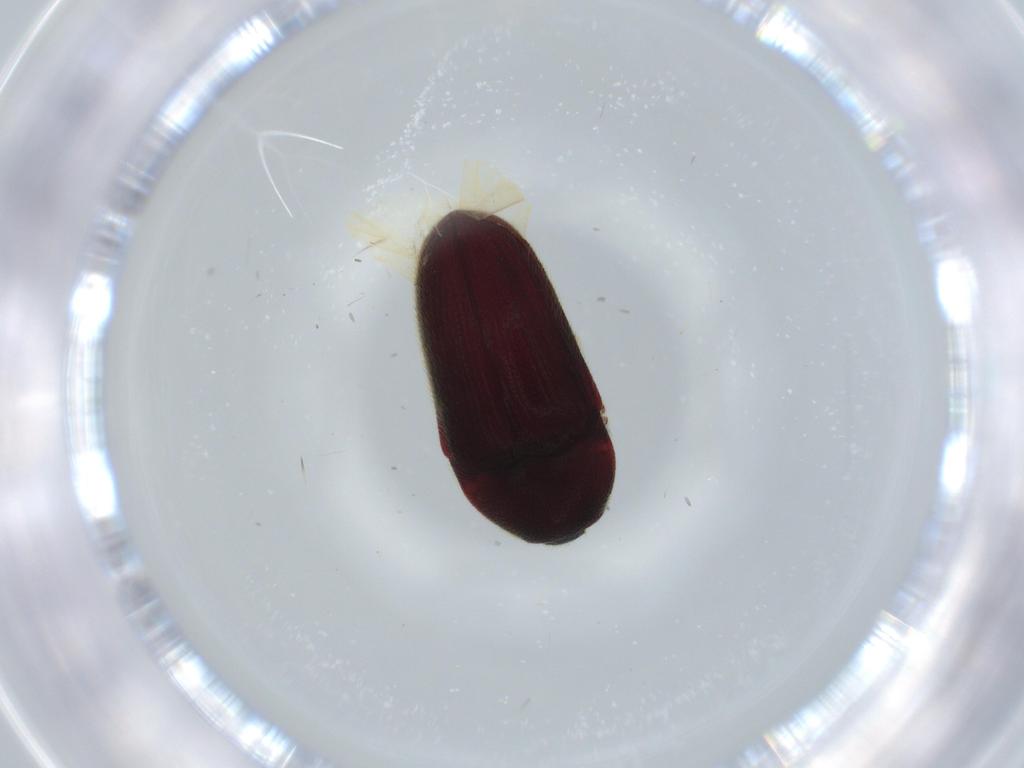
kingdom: Animalia
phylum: Arthropoda
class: Insecta
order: Coleoptera
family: Throscidae
